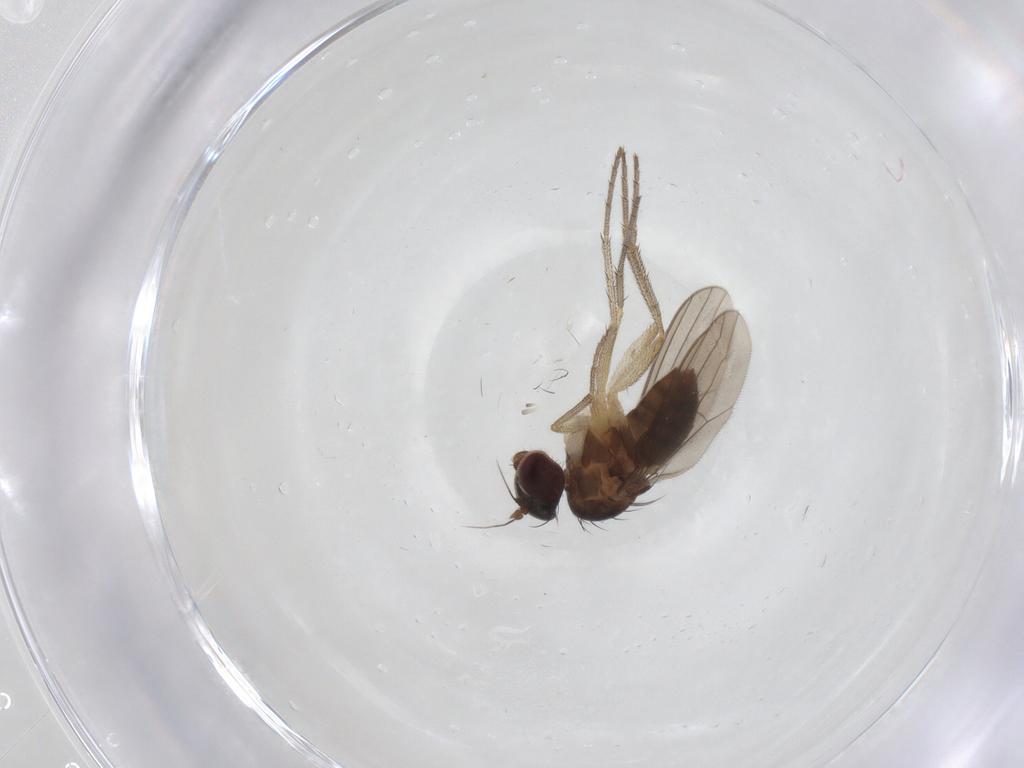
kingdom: Animalia
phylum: Arthropoda
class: Insecta
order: Diptera
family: Dolichopodidae
